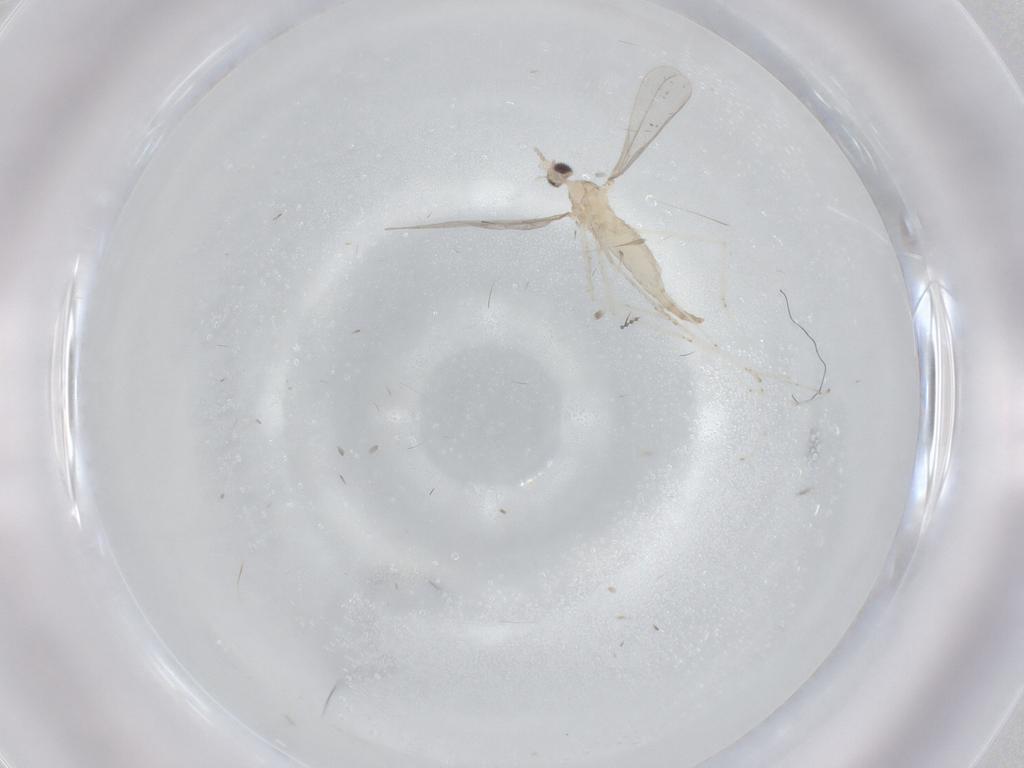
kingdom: Animalia
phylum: Arthropoda
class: Insecta
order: Diptera
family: Cecidomyiidae
